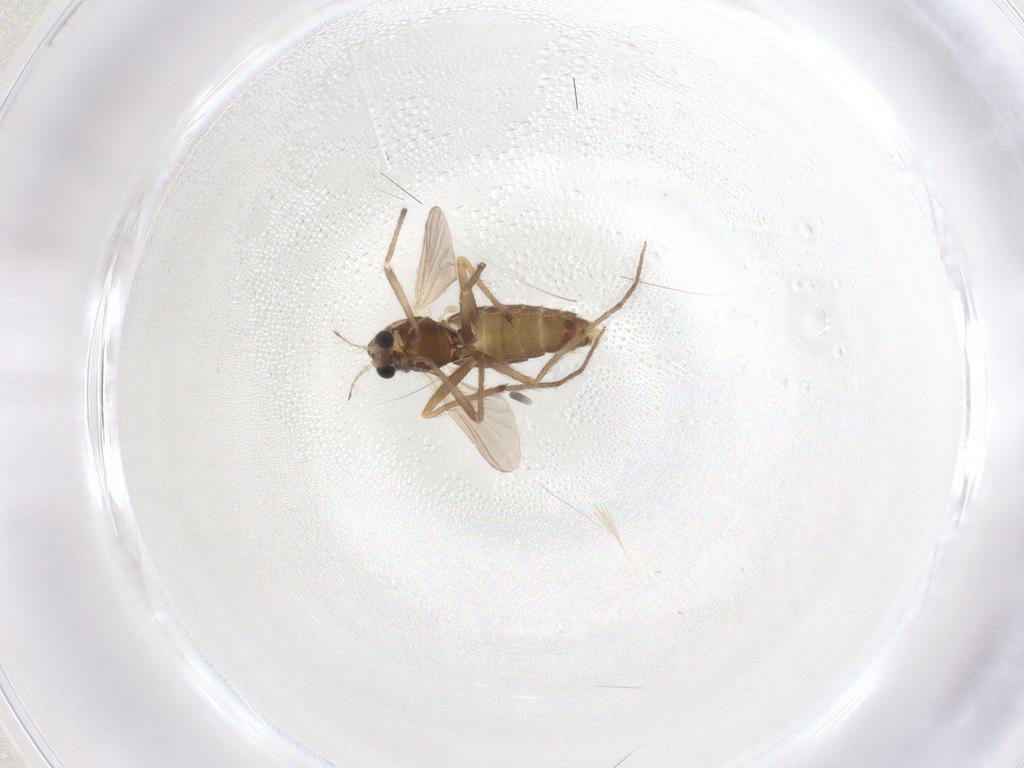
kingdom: Animalia
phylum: Arthropoda
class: Insecta
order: Diptera
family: Chironomidae
